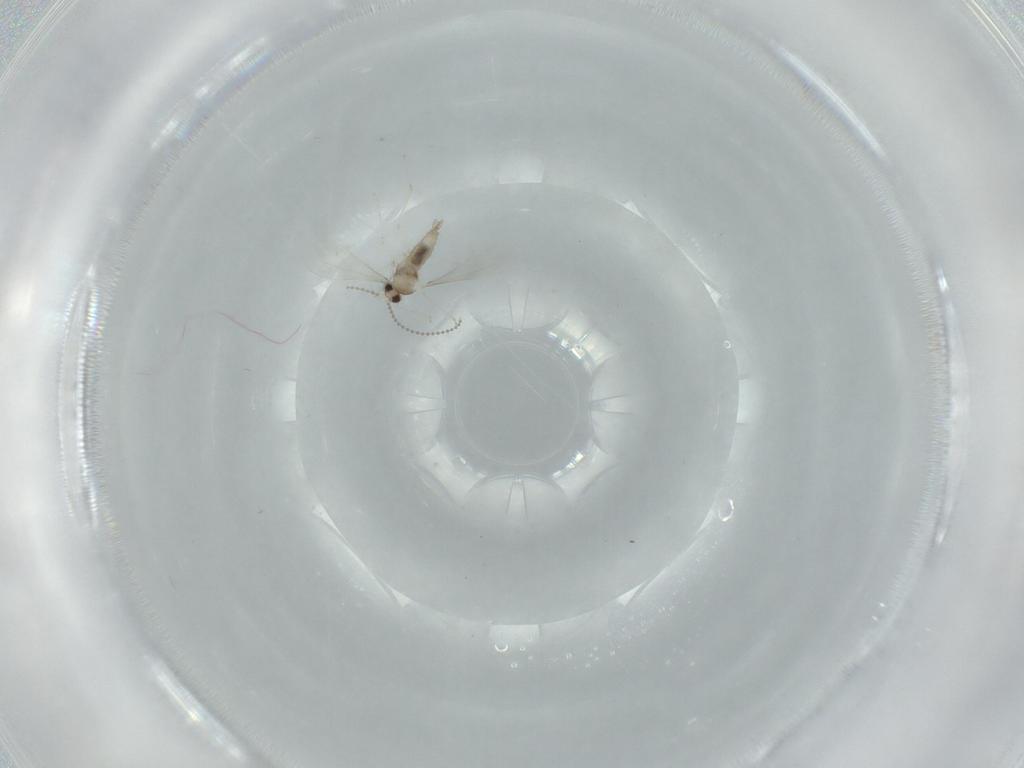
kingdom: Animalia
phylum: Arthropoda
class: Insecta
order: Diptera
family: Cecidomyiidae
